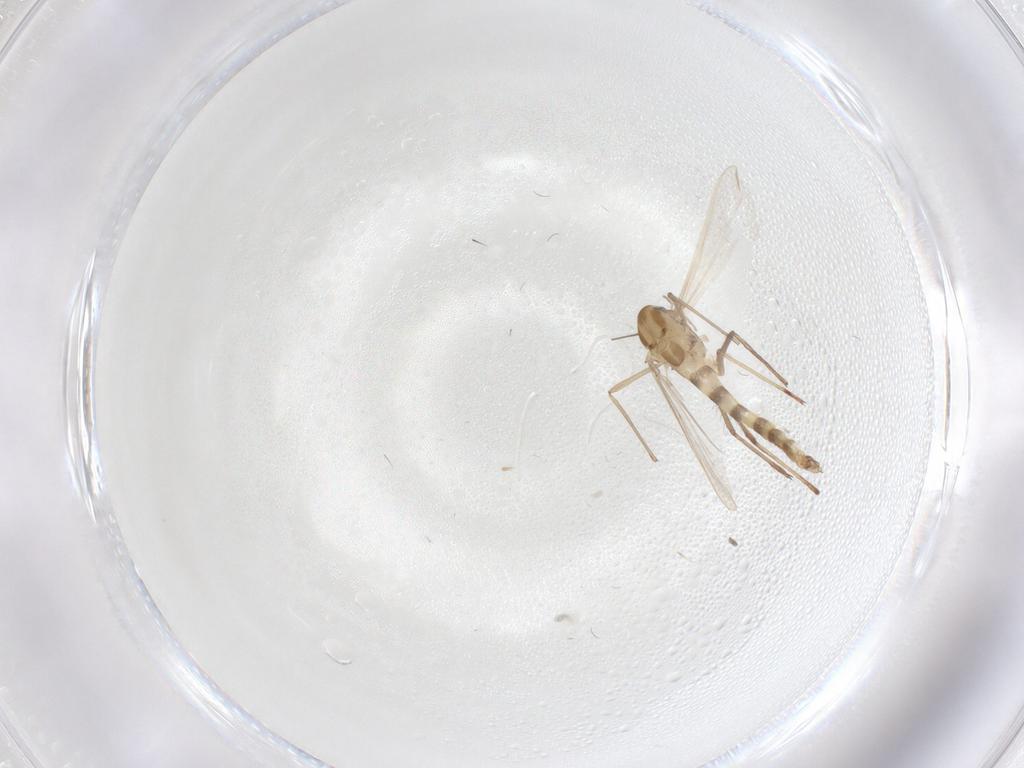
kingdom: Animalia
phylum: Arthropoda
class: Insecta
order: Diptera
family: Chironomidae
